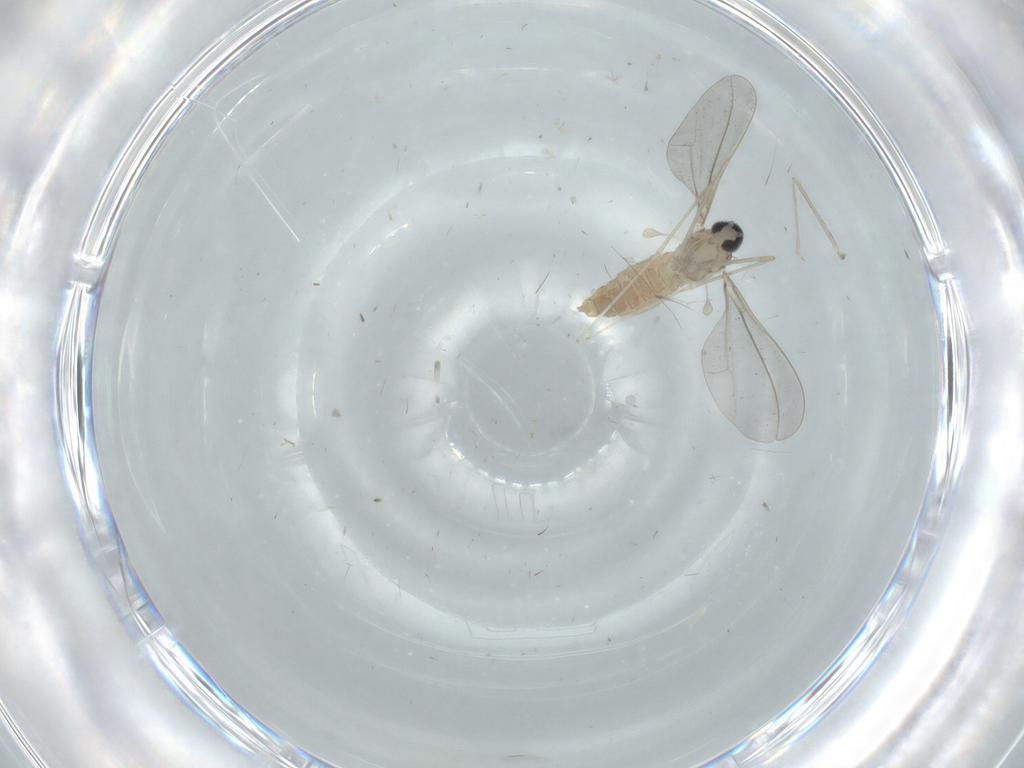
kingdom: Animalia
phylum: Arthropoda
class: Insecta
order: Diptera
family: Cecidomyiidae
